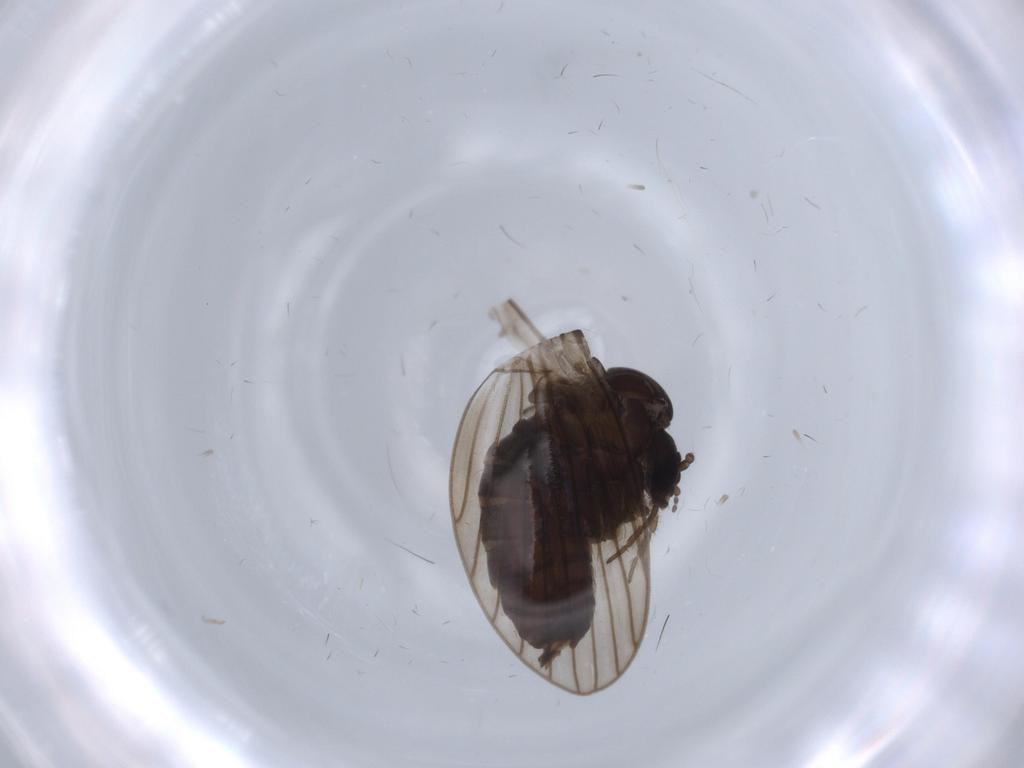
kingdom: Animalia
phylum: Arthropoda
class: Insecta
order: Diptera
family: Psychodidae
